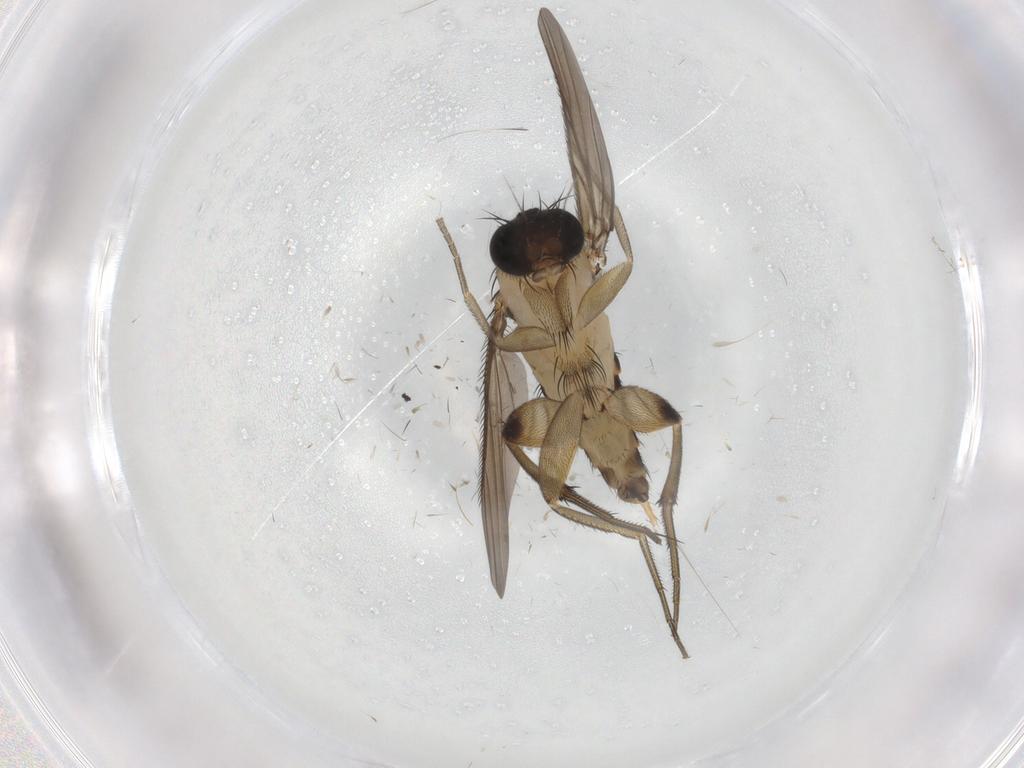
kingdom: Animalia
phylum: Arthropoda
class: Insecta
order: Diptera
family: Phoridae
